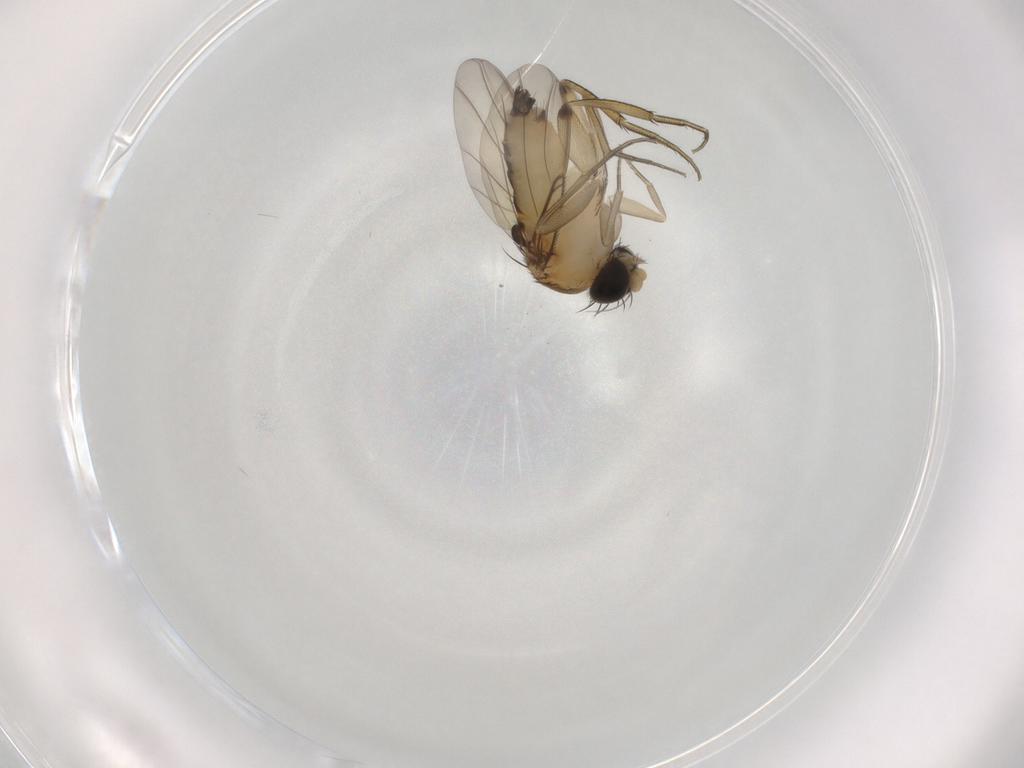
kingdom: Animalia
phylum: Arthropoda
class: Insecta
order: Diptera
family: Phoridae
